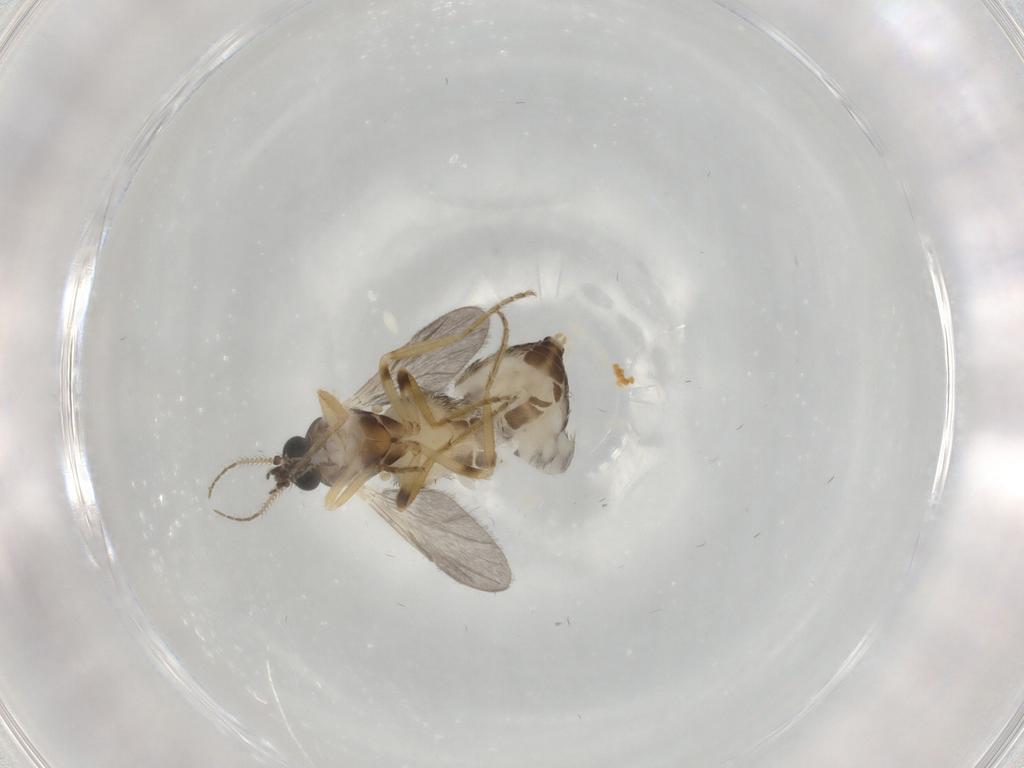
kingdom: Animalia
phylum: Arthropoda
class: Insecta
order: Diptera
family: Ceratopogonidae
